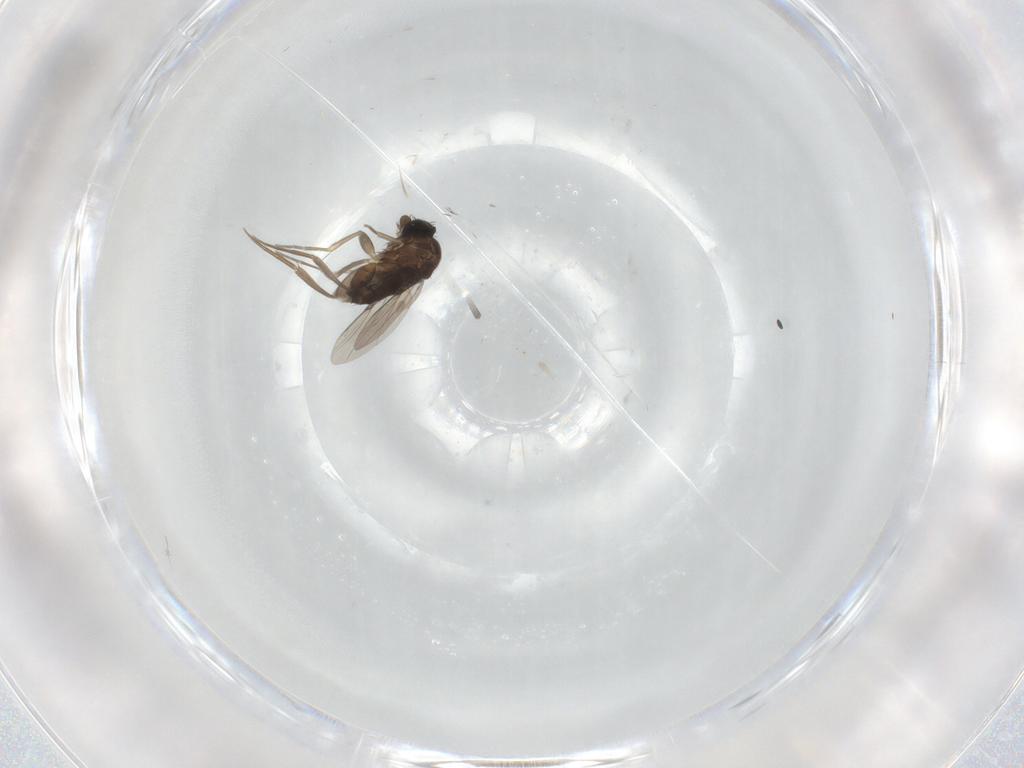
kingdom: Animalia
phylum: Arthropoda
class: Insecta
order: Diptera
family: Phoridae
